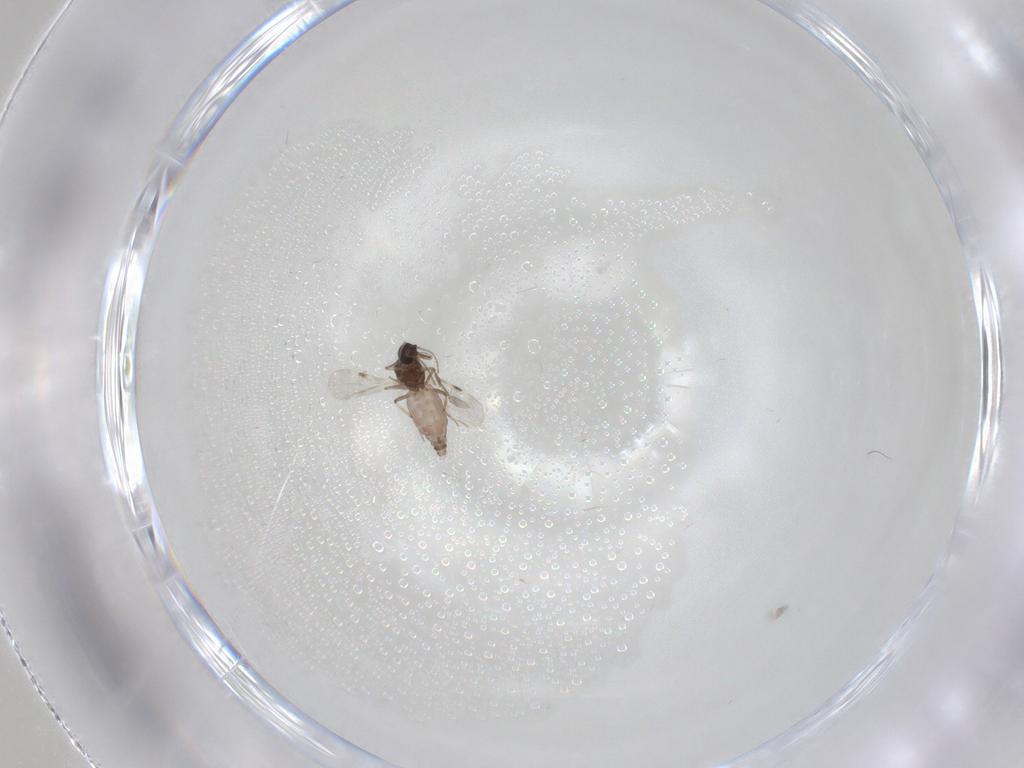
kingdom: Animalia
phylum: Arthropoda
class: Insecta
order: Diptera
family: Chironomidae
